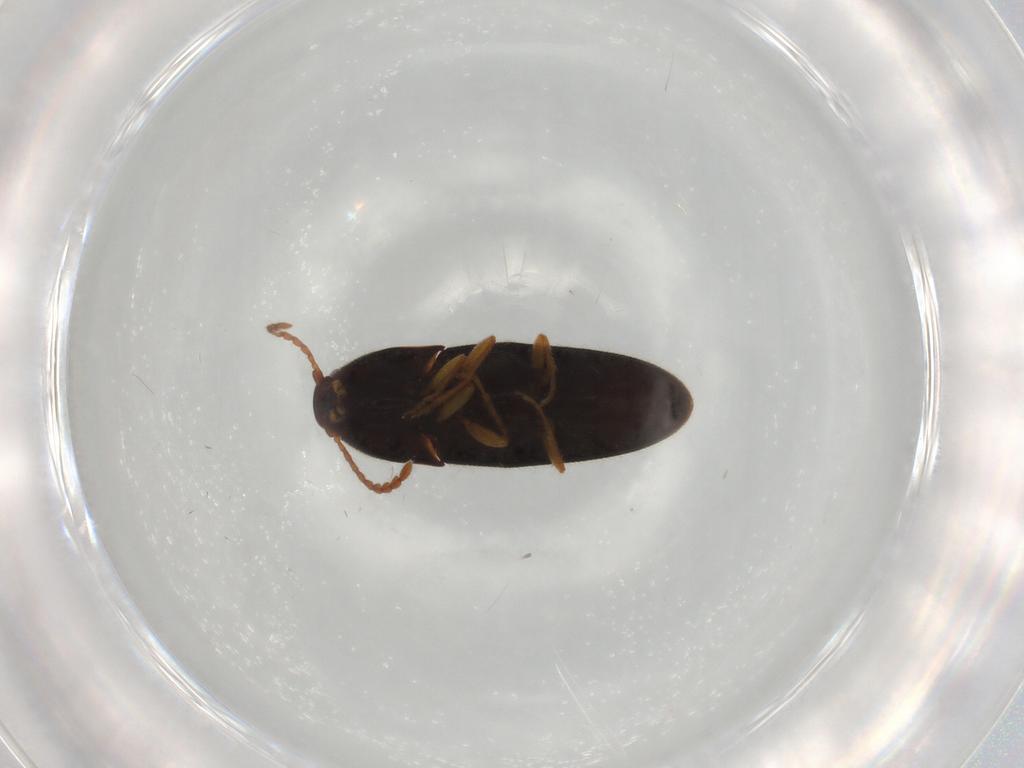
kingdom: Animalia
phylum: Arthropoda
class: Insecta
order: Coleoptera
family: Elateridae
